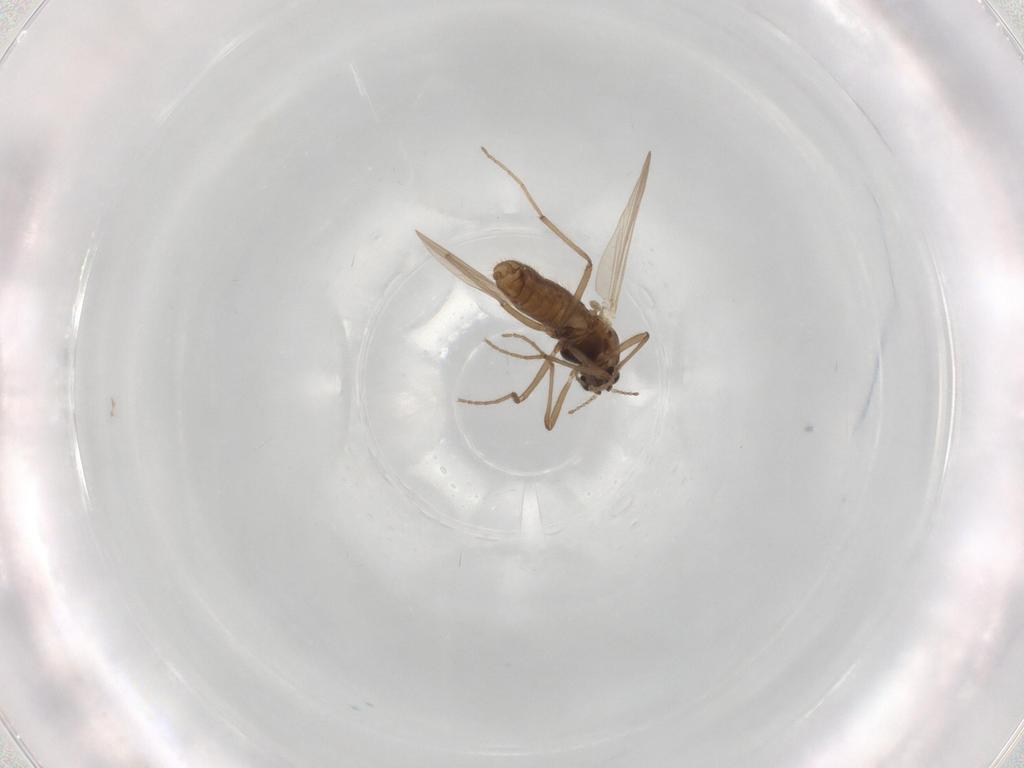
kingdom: Animalia
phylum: Arthropoda
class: Insecta
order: Diptera
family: Chironomidae
